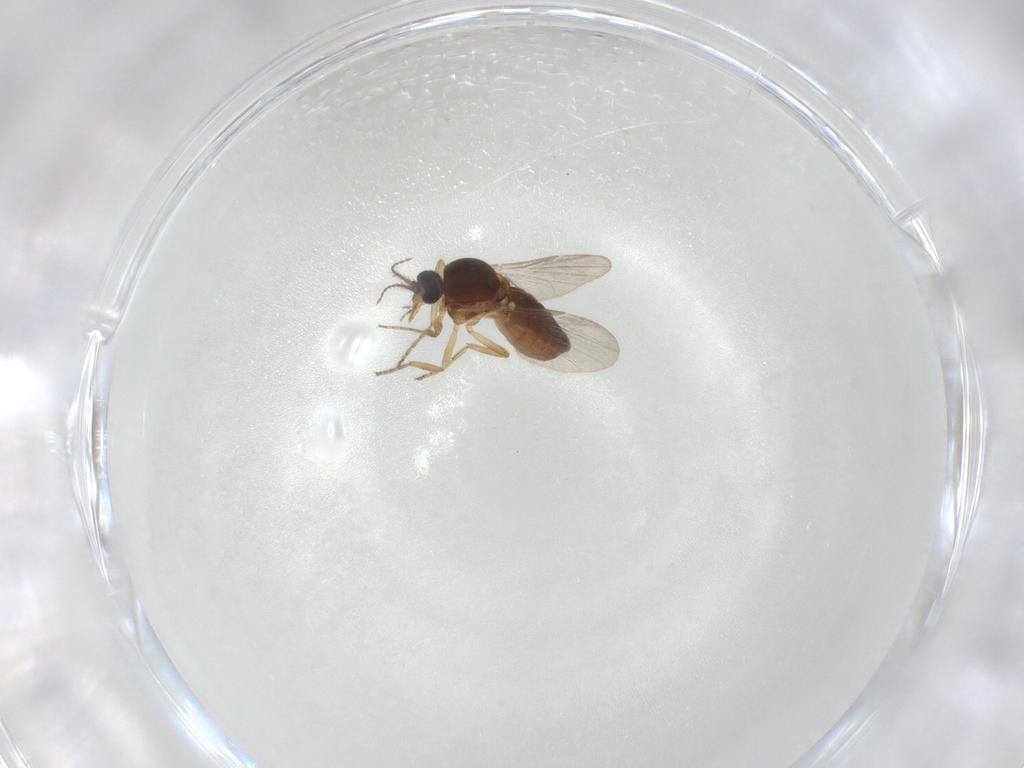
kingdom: Animalia
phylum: Arthropoda
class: Insecta
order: Diptera
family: Ceratopogonidae
